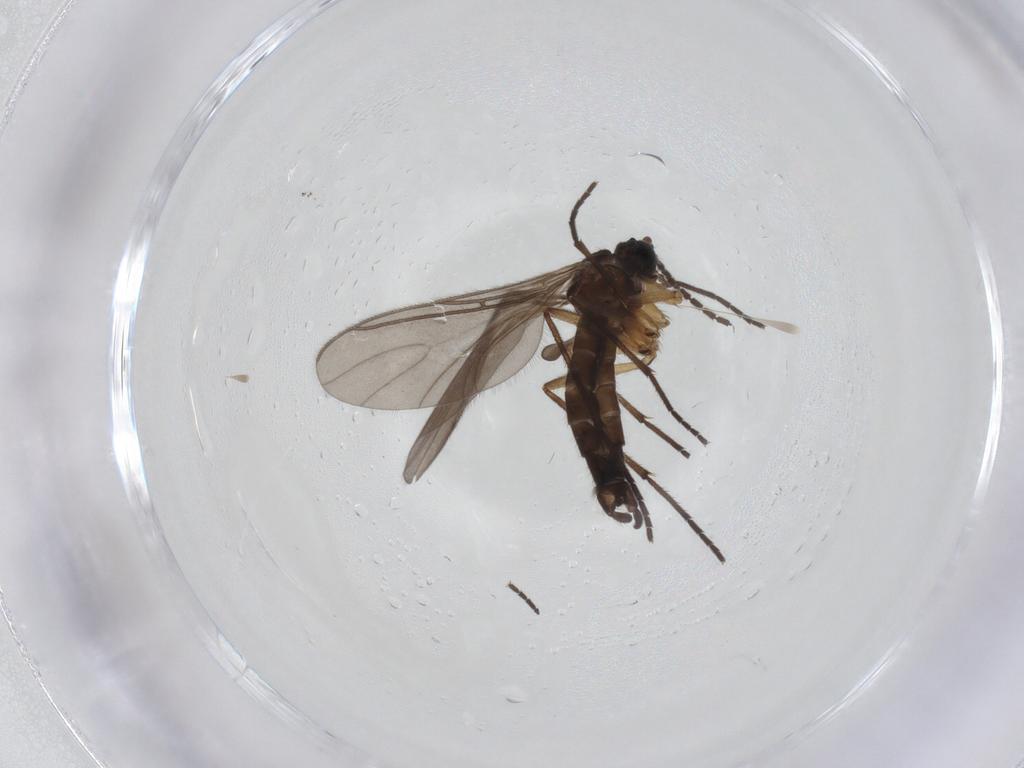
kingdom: Animalia
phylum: Arthropoda
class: Insecta
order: Diptera
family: Sciaridae
